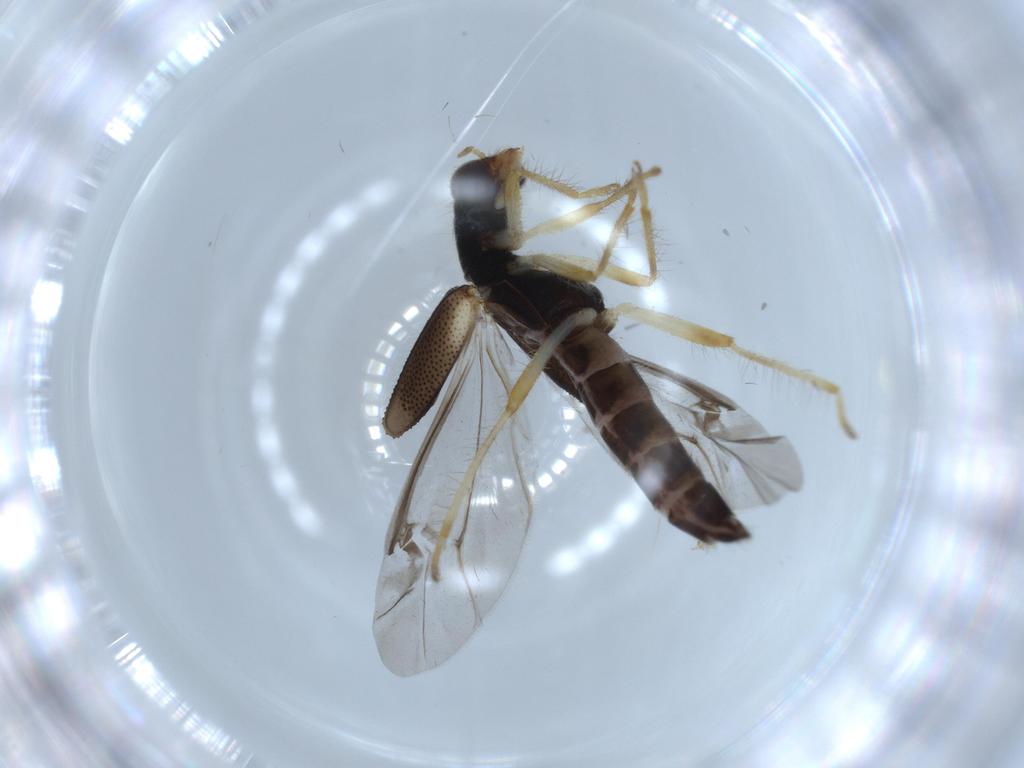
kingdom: Animalia
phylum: Arthropoda
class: Insecta
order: Coleoptera
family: Cleridae
